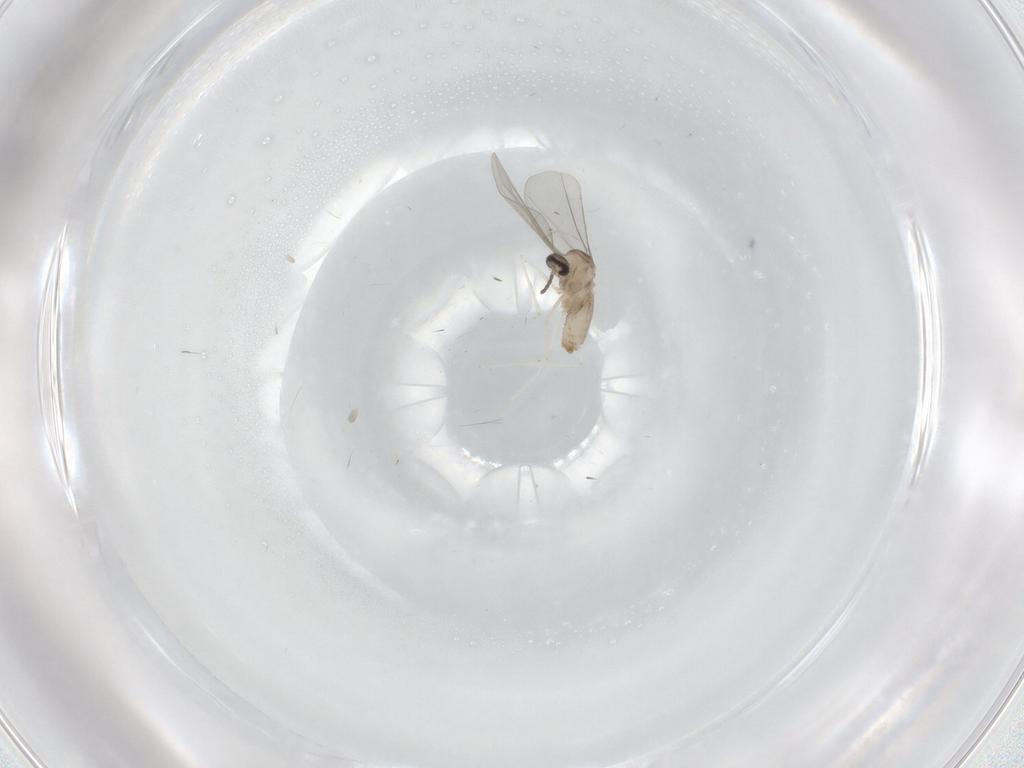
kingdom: Animalia
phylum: Arthropoda
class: Insecta
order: Diptera
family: Cecidomyiidae
